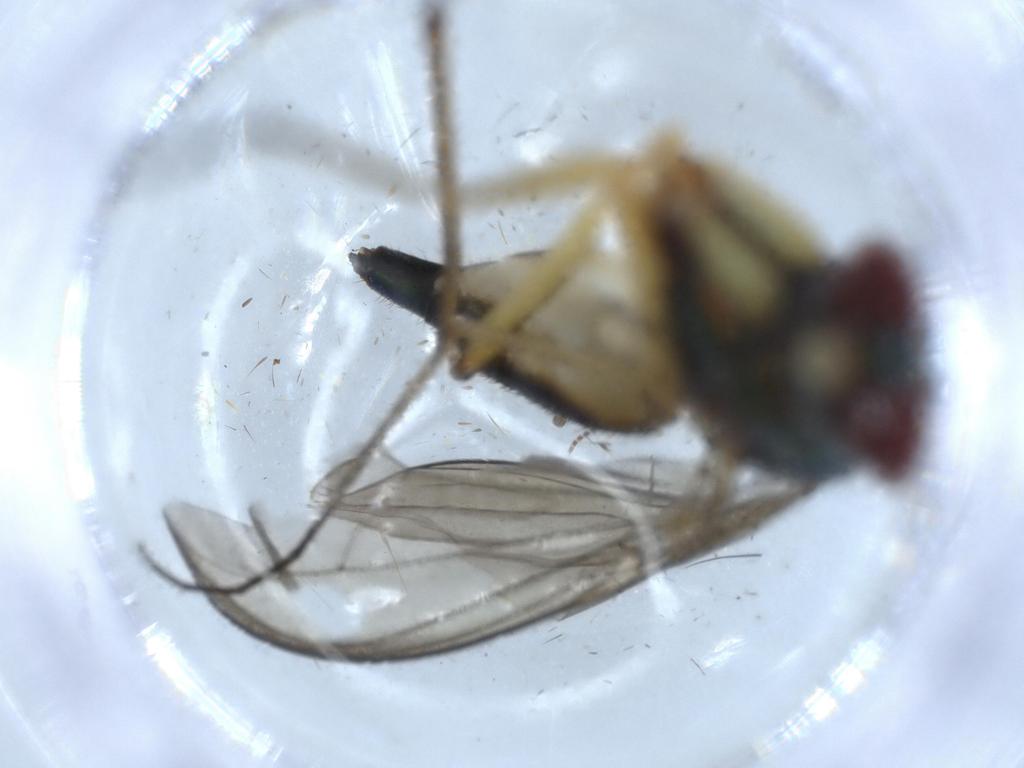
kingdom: Animalia
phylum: Arthropoda
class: Insecta
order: Diptera
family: Dolichopodidae
